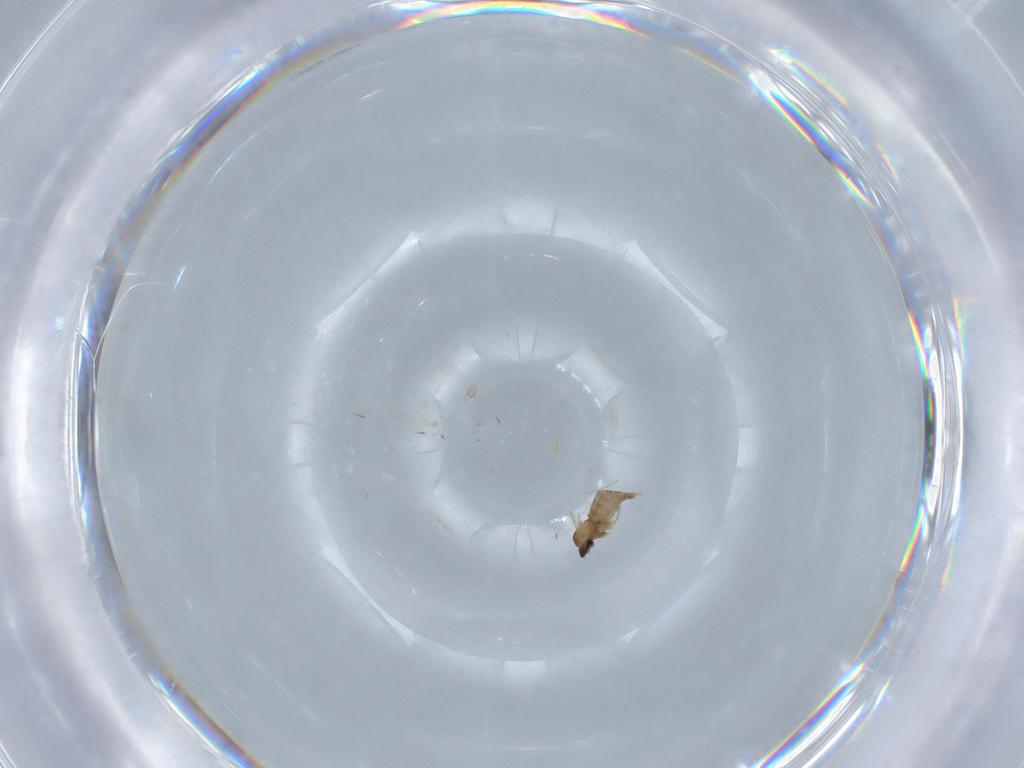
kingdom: Animalia
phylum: Arthropoda
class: Insecta
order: Diptera
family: Cecidomyiidae
